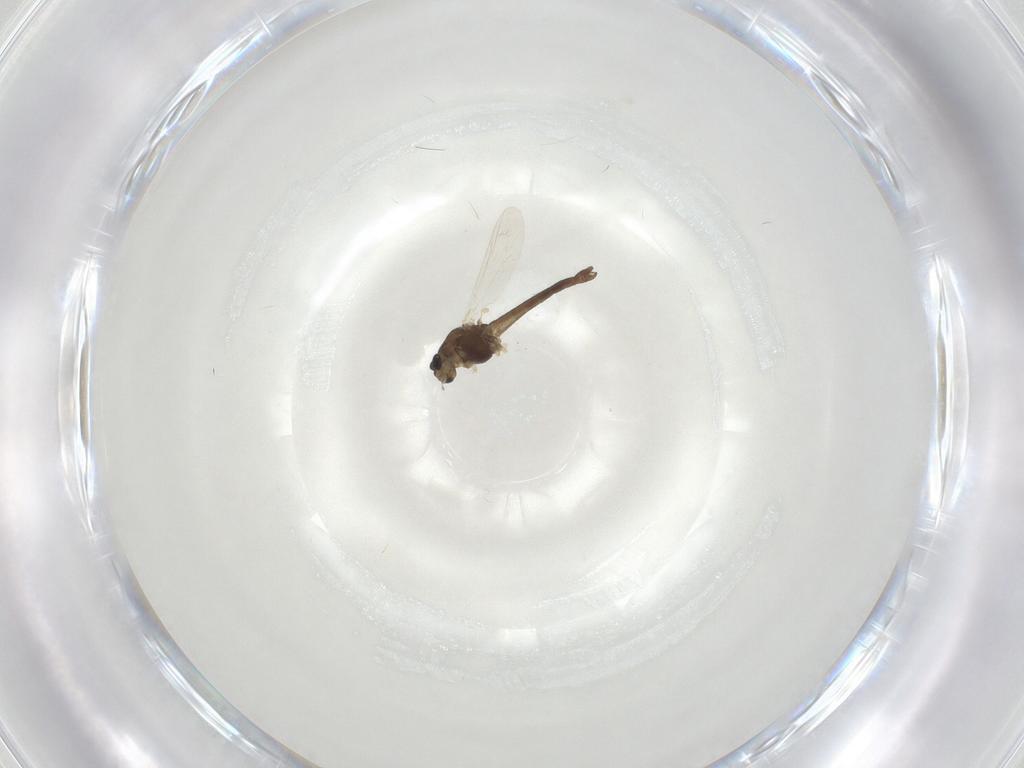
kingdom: Animalia
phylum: Arthropoda
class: Insecta
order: Diptera
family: Chironomidae
